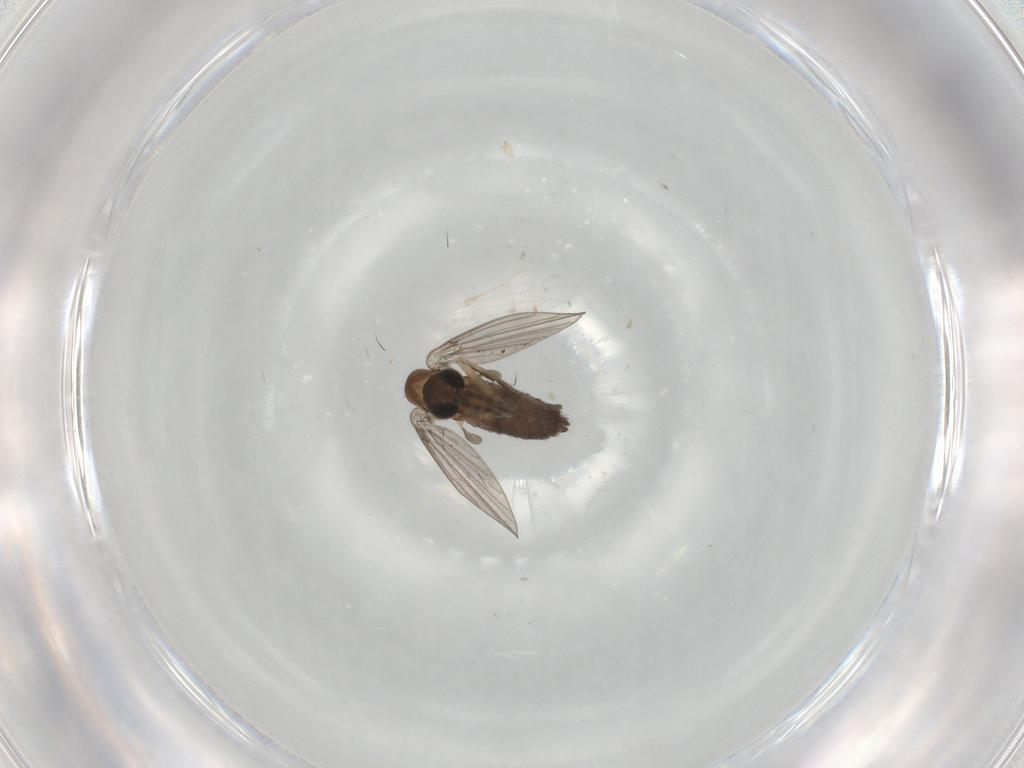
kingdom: Animalia
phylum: Arthropoda
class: Insecta
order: Diptera
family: Psychodidae
